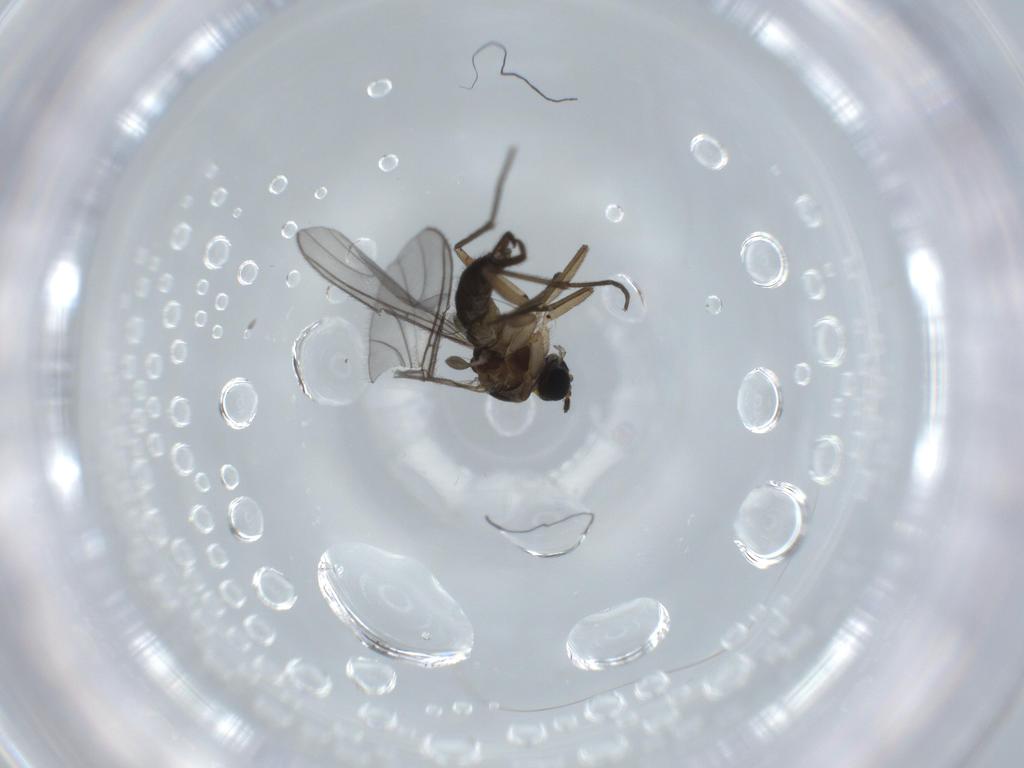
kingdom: Animalia
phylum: Arthropoda
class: Insecta
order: Diptera
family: Sciaridae
